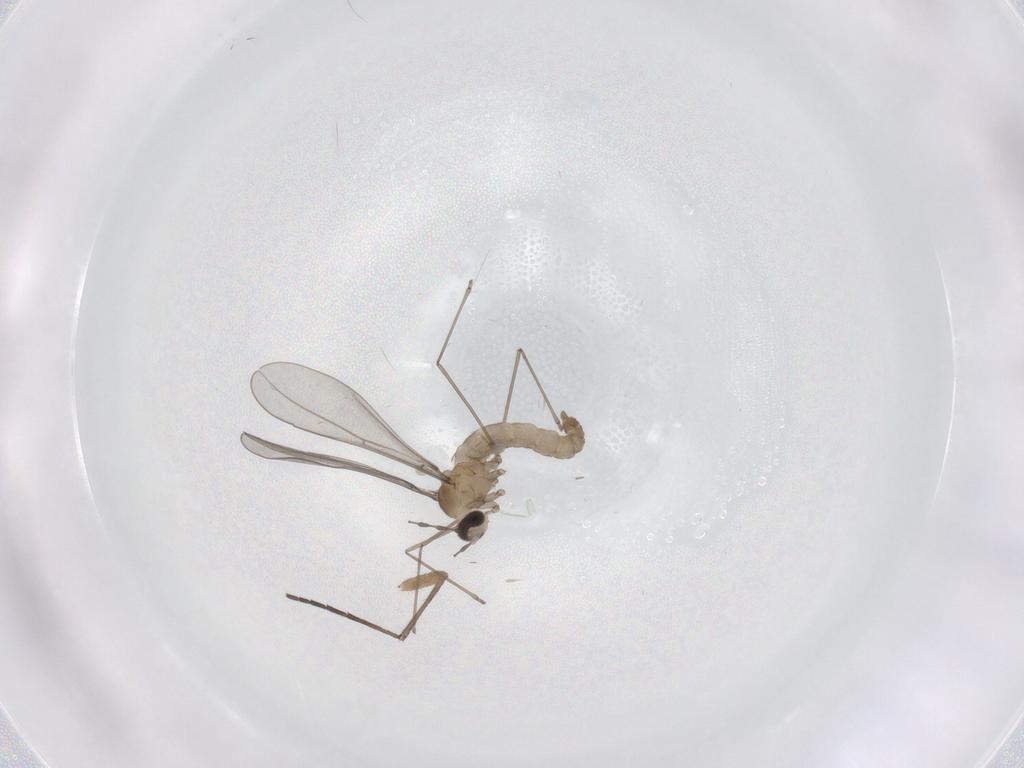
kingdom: Animalia
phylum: Arthropoda
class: Insecta
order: Diptera
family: Sciaridae
